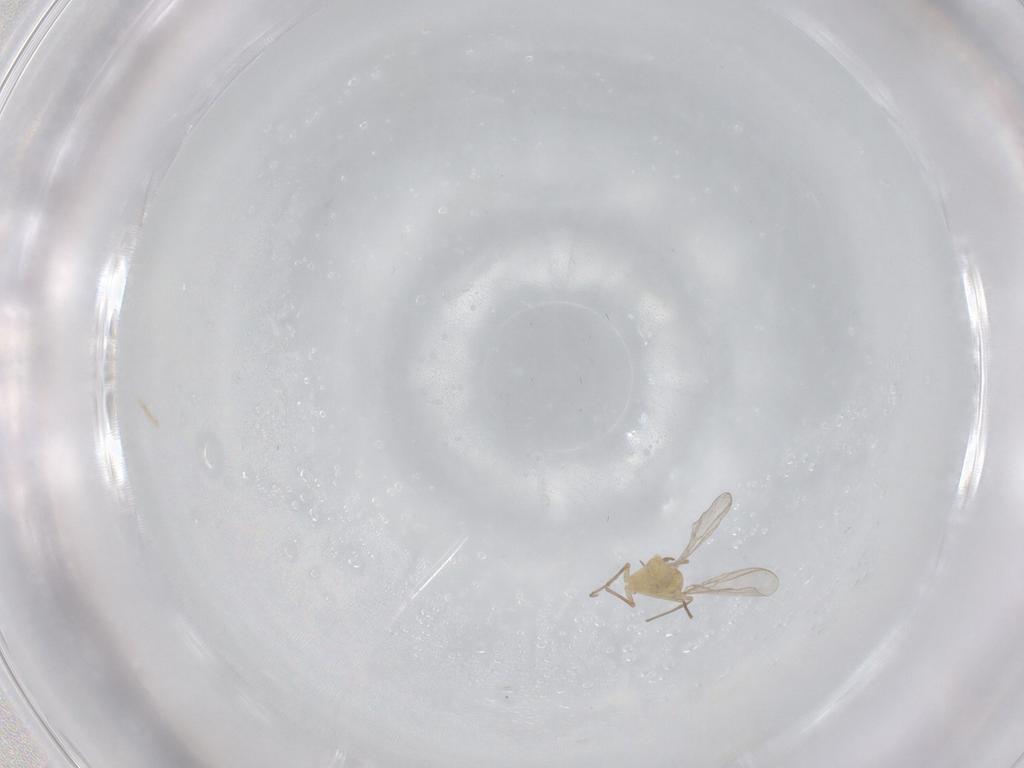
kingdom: Animalia
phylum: Arthropoda
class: Insecta
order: Diptera
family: Chironomidae
